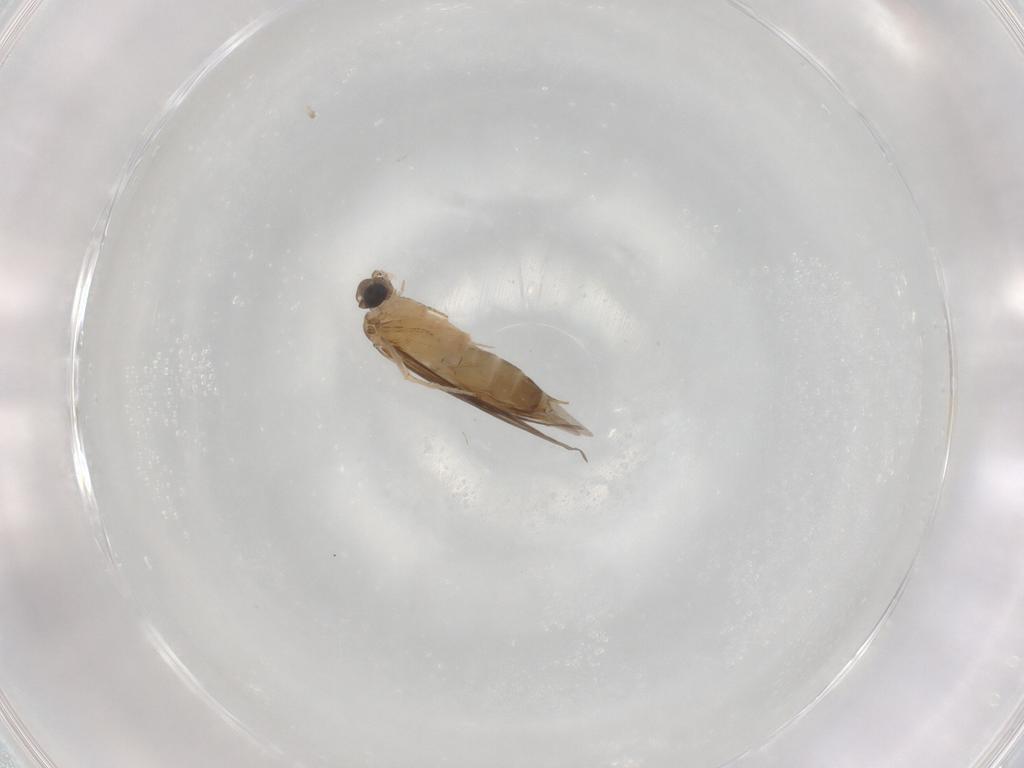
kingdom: Animalia
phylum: Arthropoda
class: Insecta
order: Trichoptera
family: Hydroptilidae
